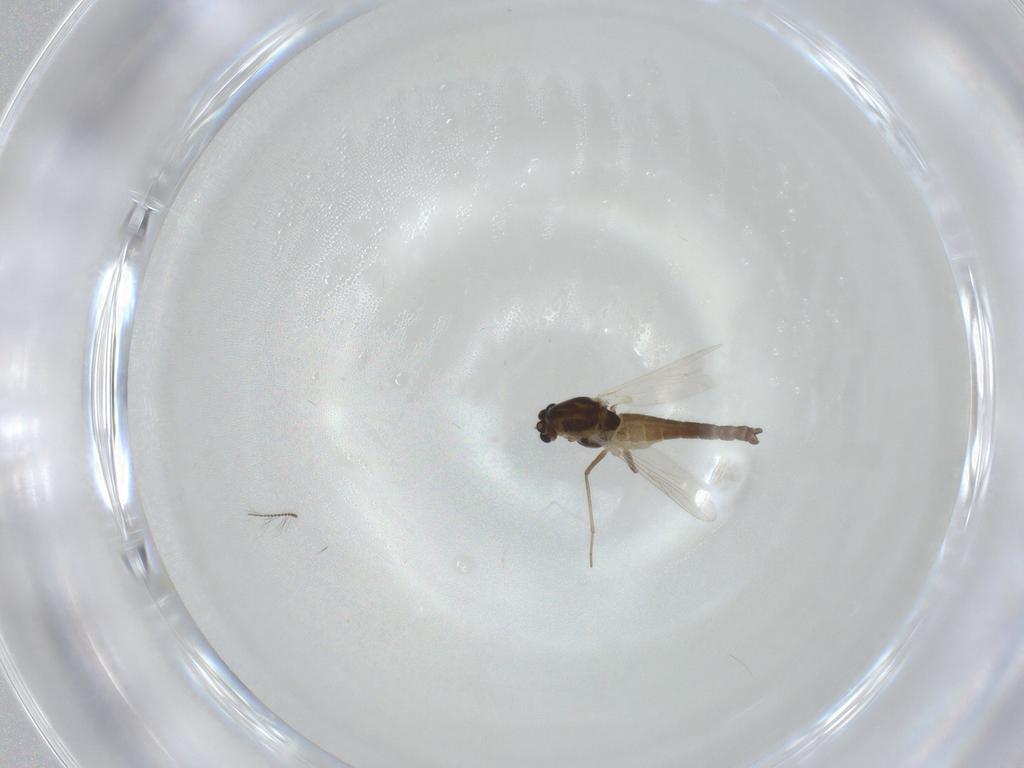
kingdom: Animalia
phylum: Arthropoda
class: Insecta
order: Diptera
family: Chironomidae
